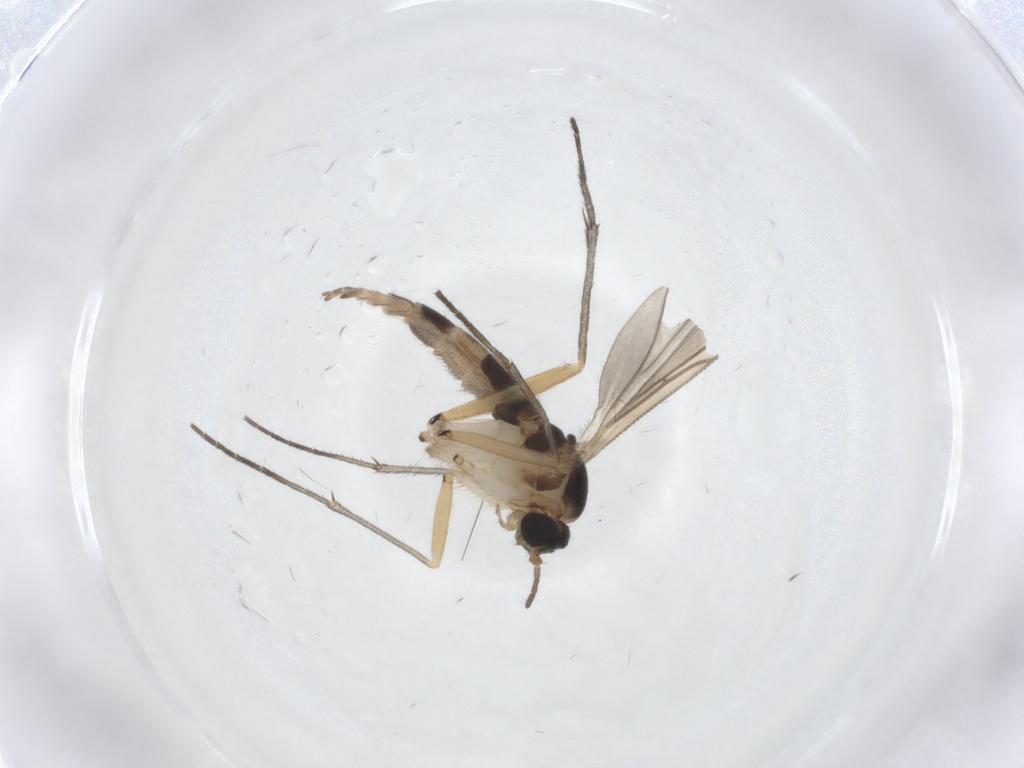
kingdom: Animalia
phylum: Arthropoda
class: Insecta
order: Diptera
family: Sciaridae
